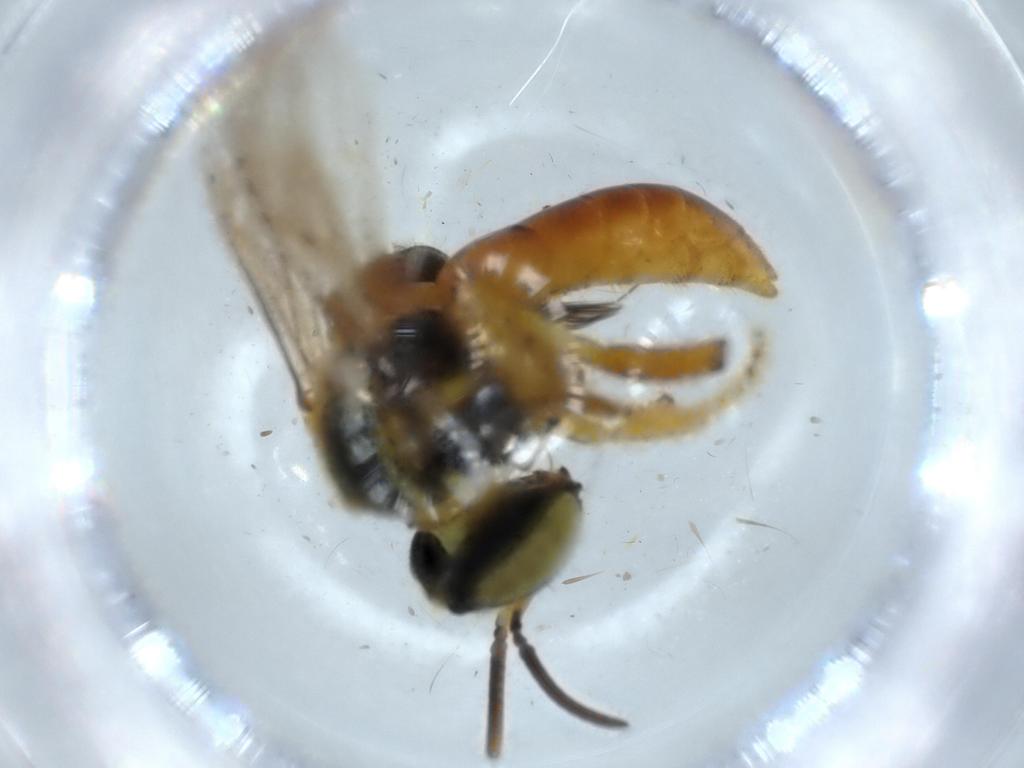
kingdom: Animalia
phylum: Arthropoda
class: Insecta
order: Hymenoptera
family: Apidae
